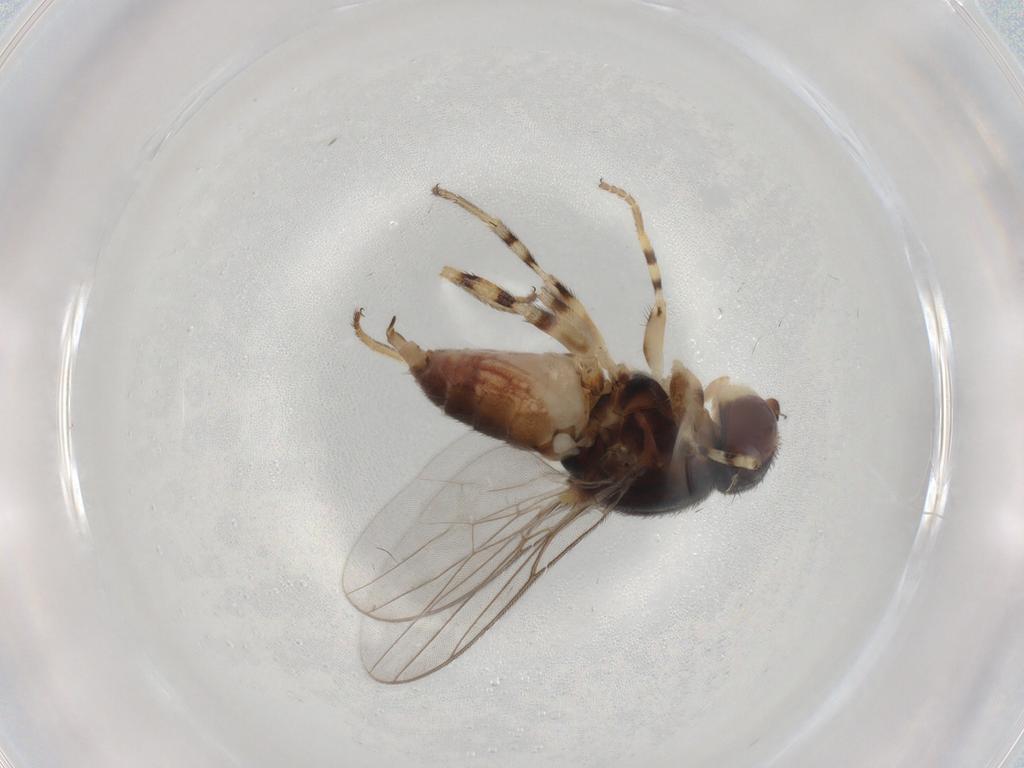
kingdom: Animalia
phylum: Arthropoda
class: Insecta
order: Diptera
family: Chloropidae
